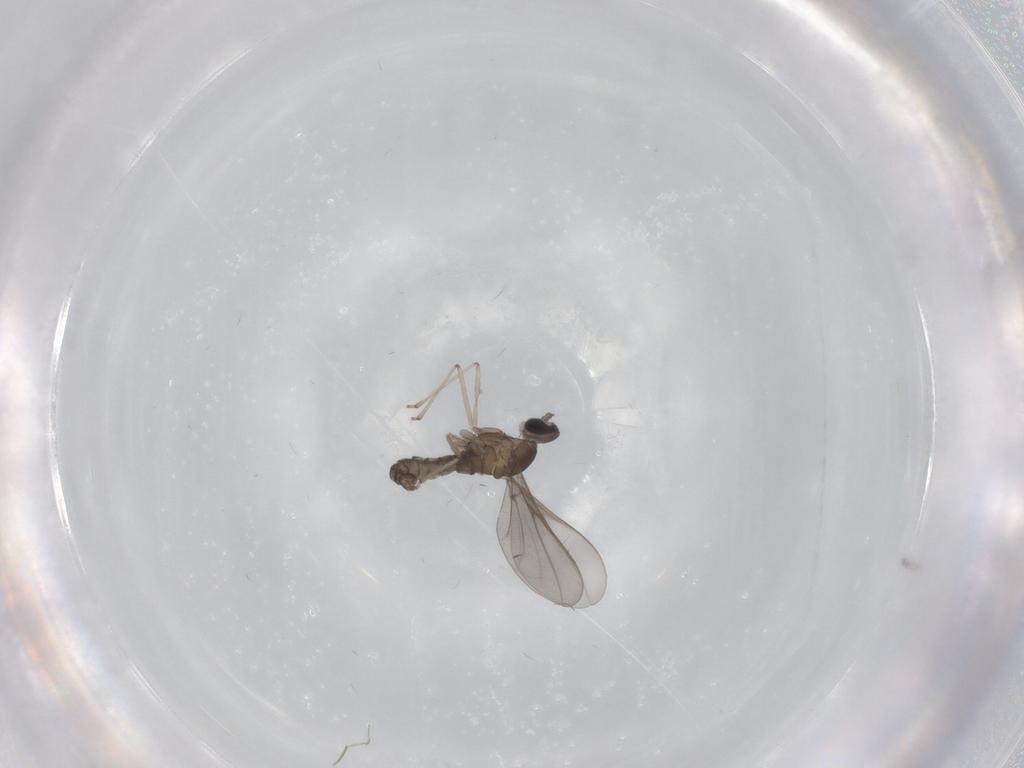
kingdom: Animalia
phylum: Arthropoda
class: Insecta
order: Diptera
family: Cecidomyiidae
